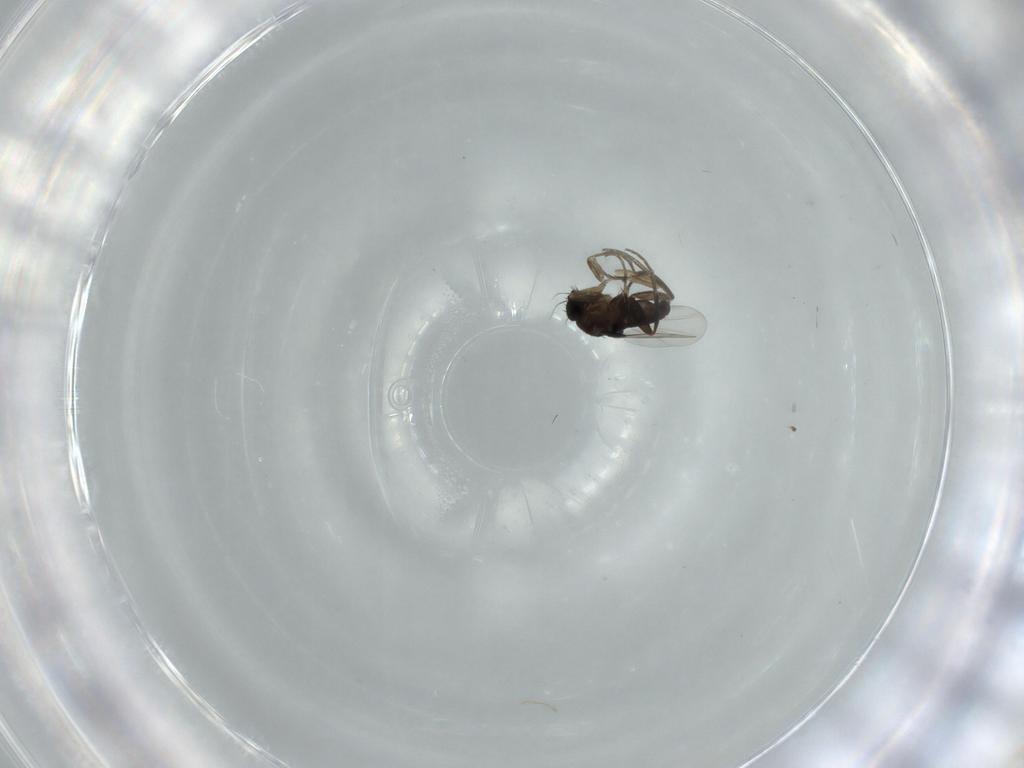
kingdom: Animalia
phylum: Arthropoda
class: Insecta
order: Diptera
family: Phoridae
